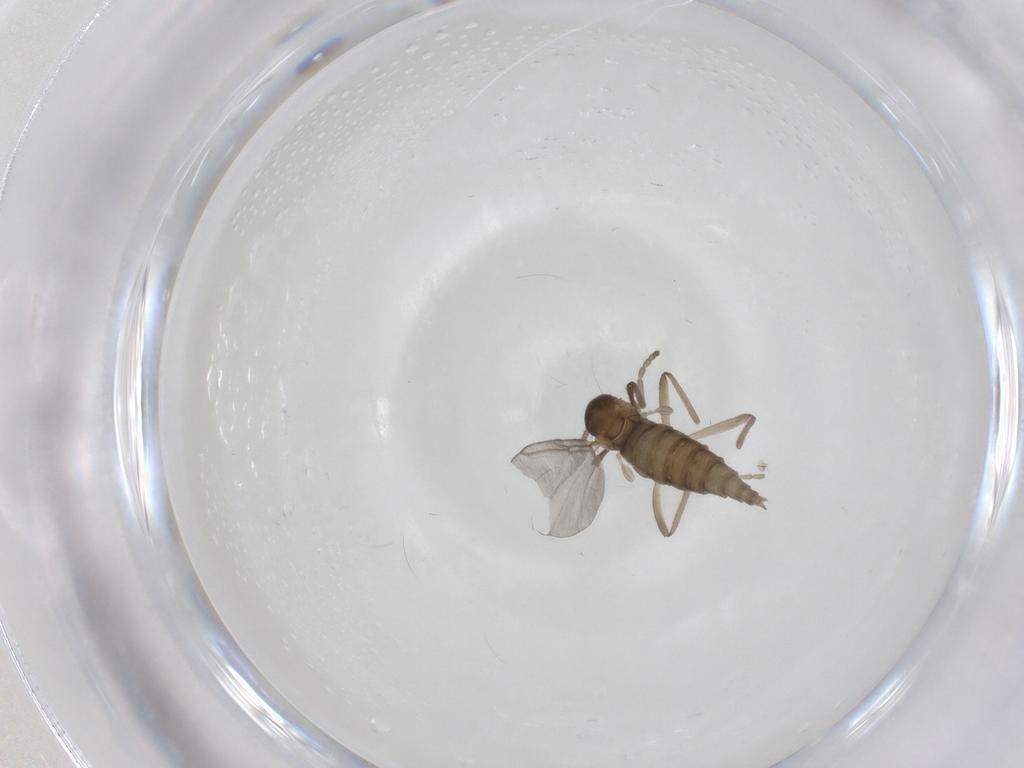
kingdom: Animalia
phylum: Arthropoda
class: Insecta
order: Diptera
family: Cecidomyiidae
